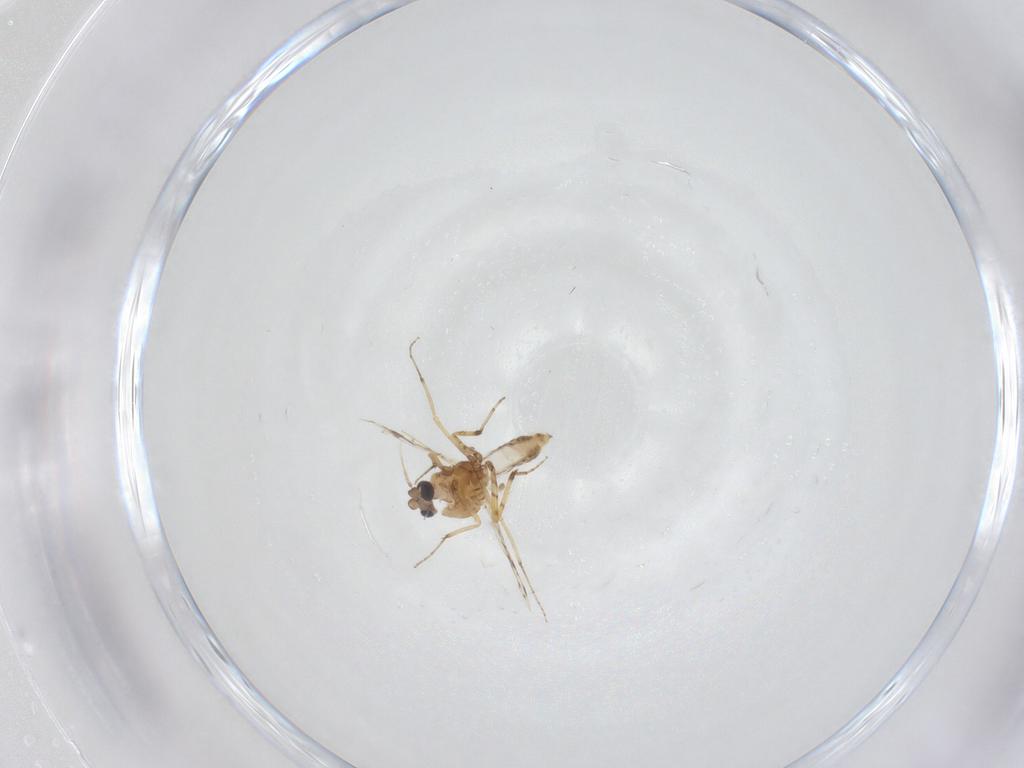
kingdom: Animalia
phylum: Arthropoda
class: Insecta
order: Diptera
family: Ceratopogonidae
